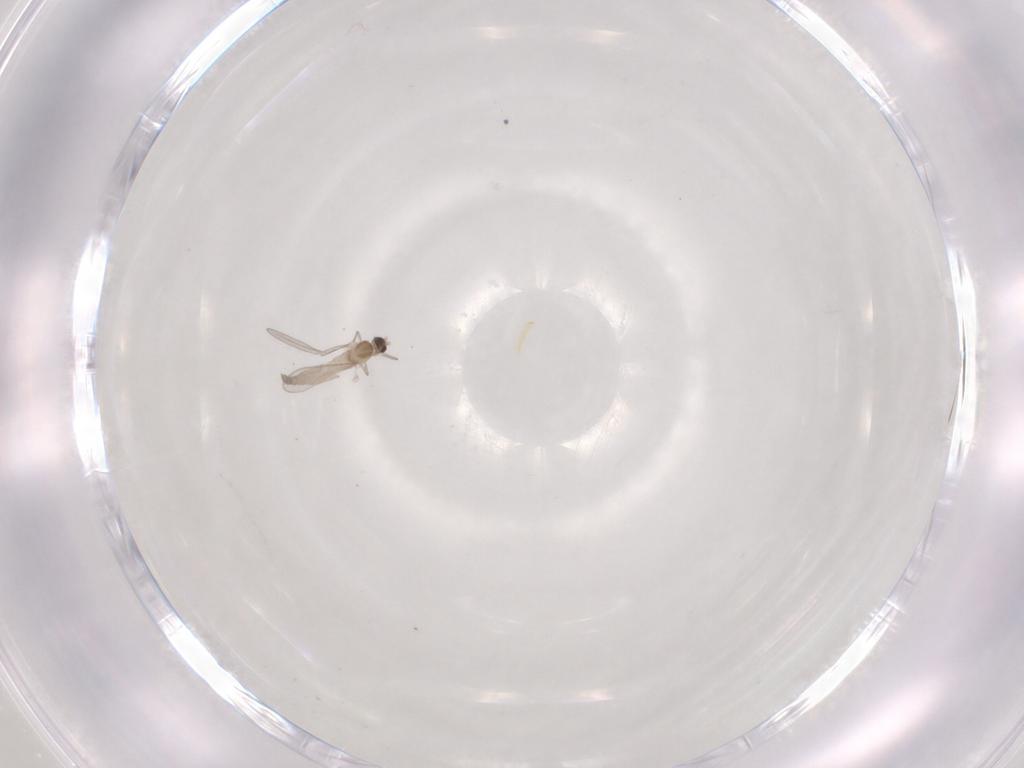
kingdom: Animalia
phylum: Arthropoda
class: Insecta
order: Diptera
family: Cecidomyiidae
